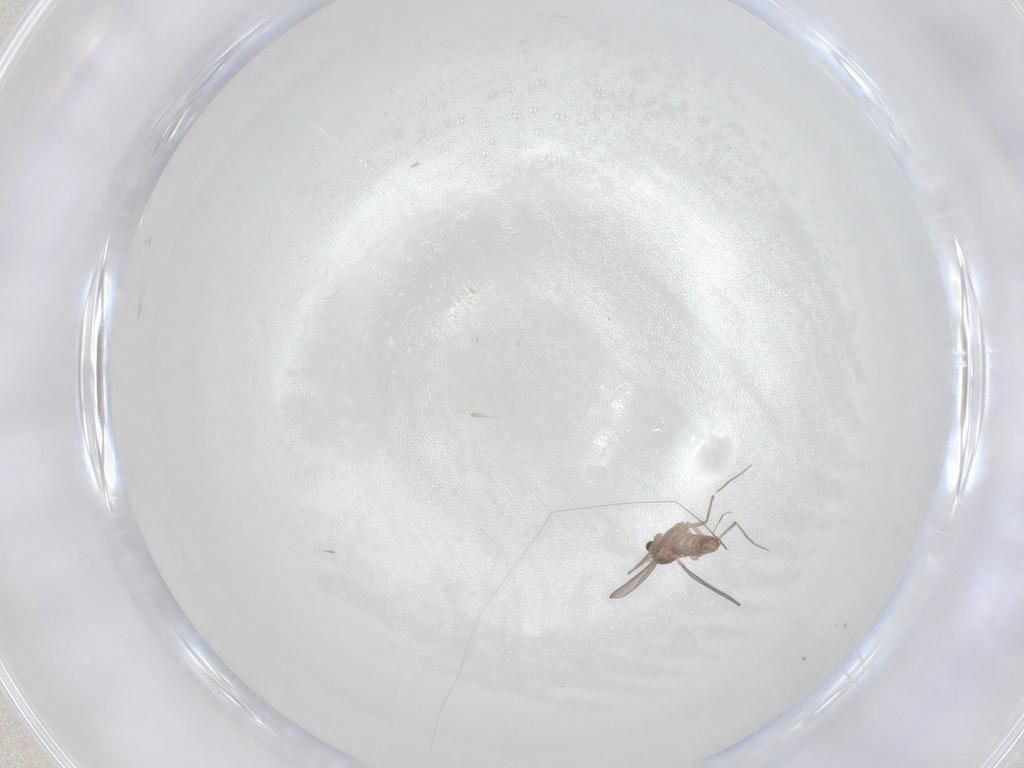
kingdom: Animalia
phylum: Arthropoda
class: Insecta
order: Diptera
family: Chironomidae
